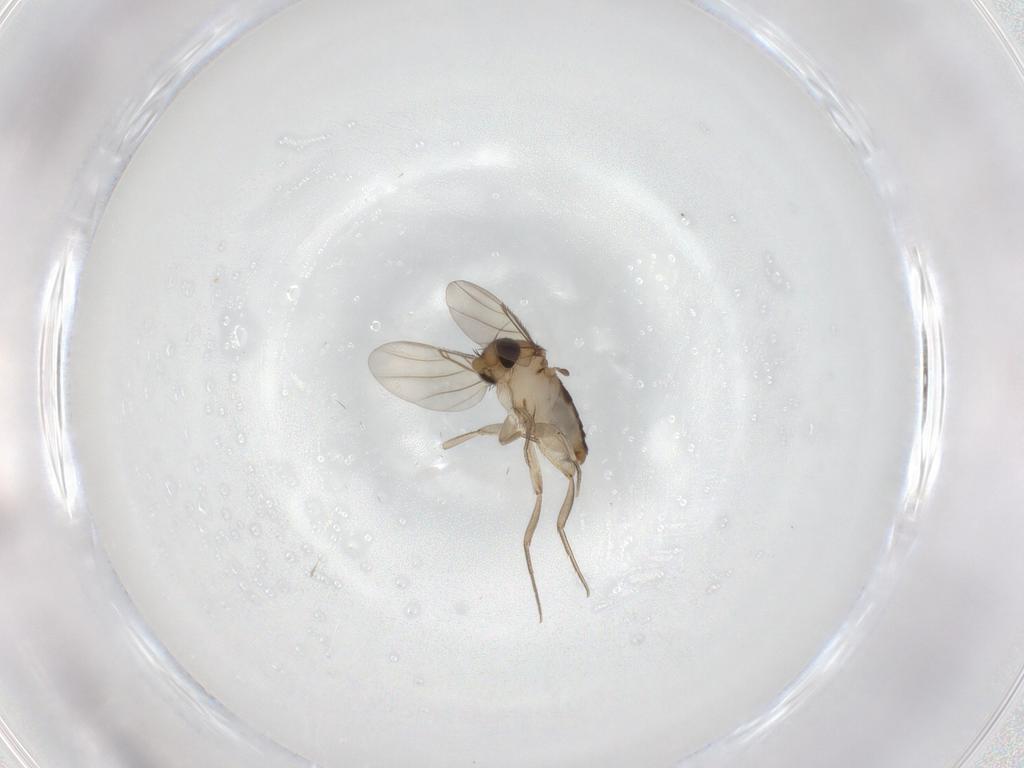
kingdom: Animalia
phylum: Arthropoda
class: Insecta
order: Diptera
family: Phoridae
